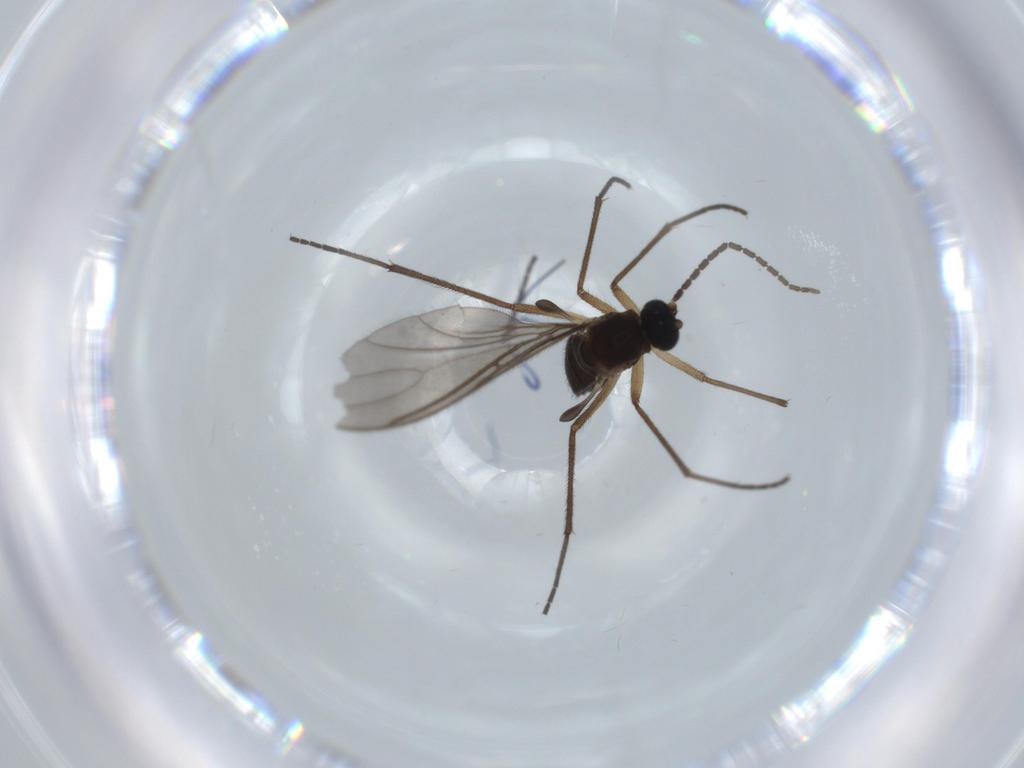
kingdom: Animalia
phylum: Arthropoda
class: Insecta
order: Diptera
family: Sciaridae
